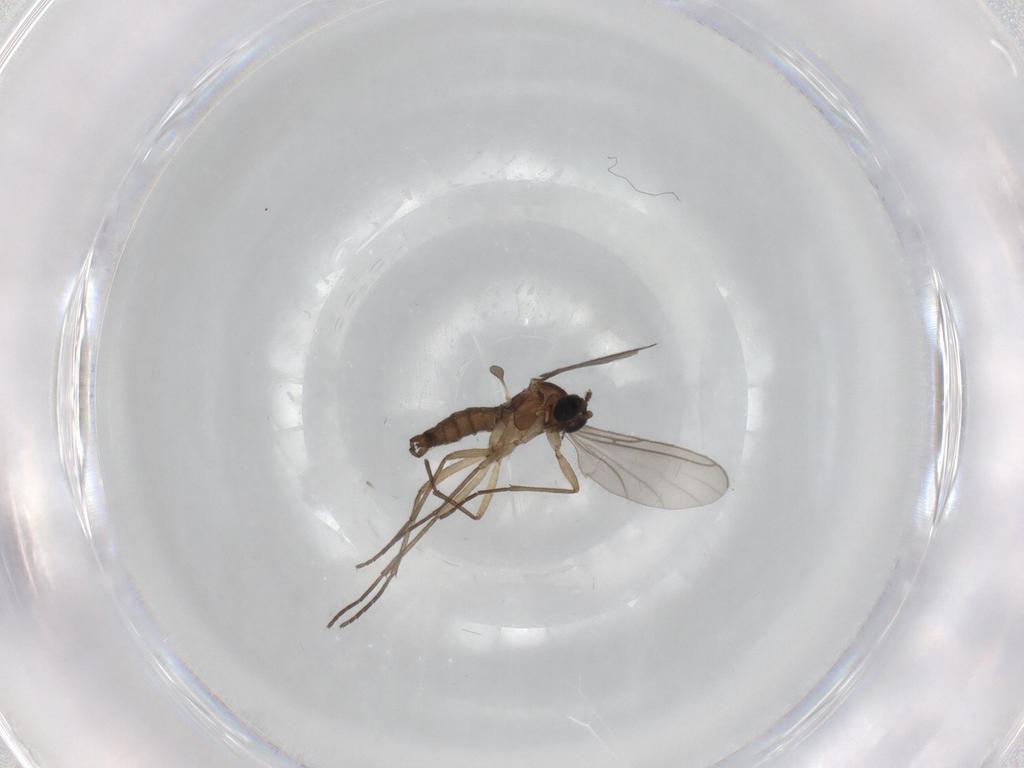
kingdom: Animalia
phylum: Arthropoda
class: Insecta
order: Diptera
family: Sciaridae
